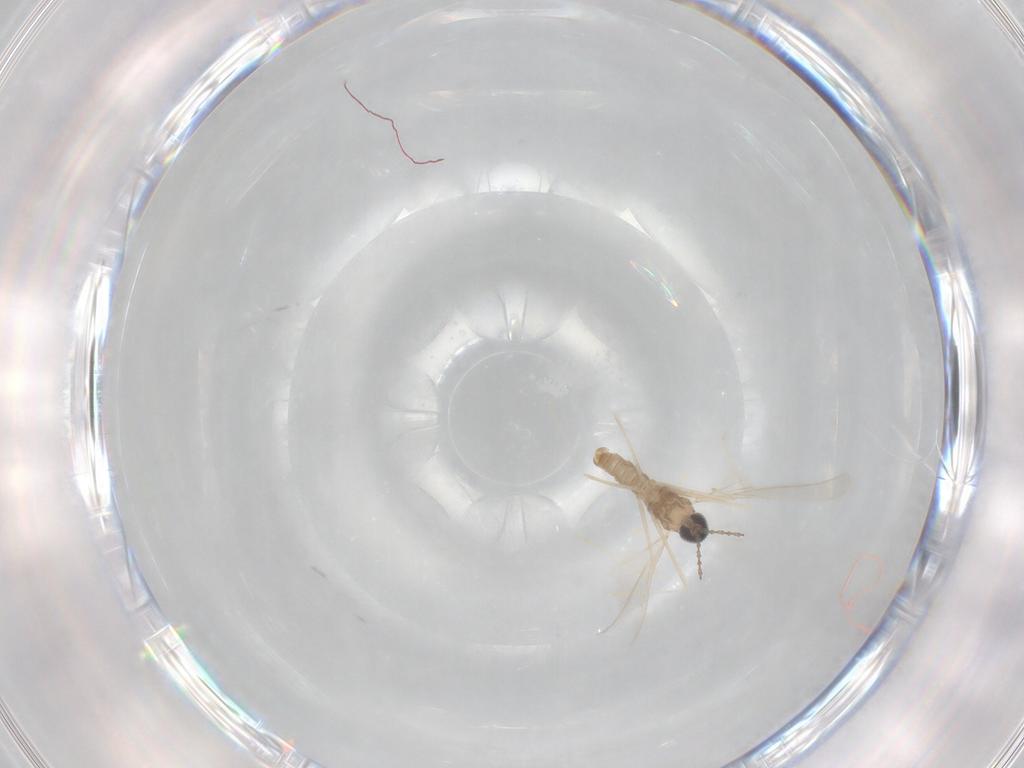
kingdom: Animalia
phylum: Arthropoda
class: Insecta
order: Diptera
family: Cecidomyiidae
